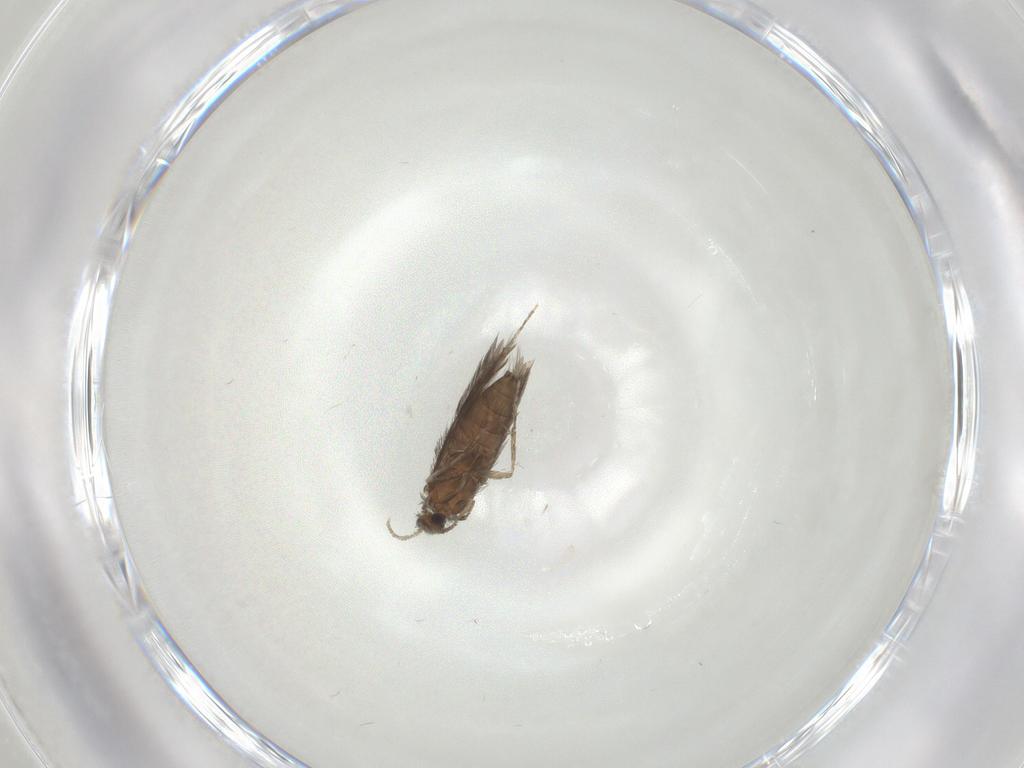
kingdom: Animalia
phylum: Arthropoda
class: Insecta
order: Trichoptera
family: Hydroptilidae
